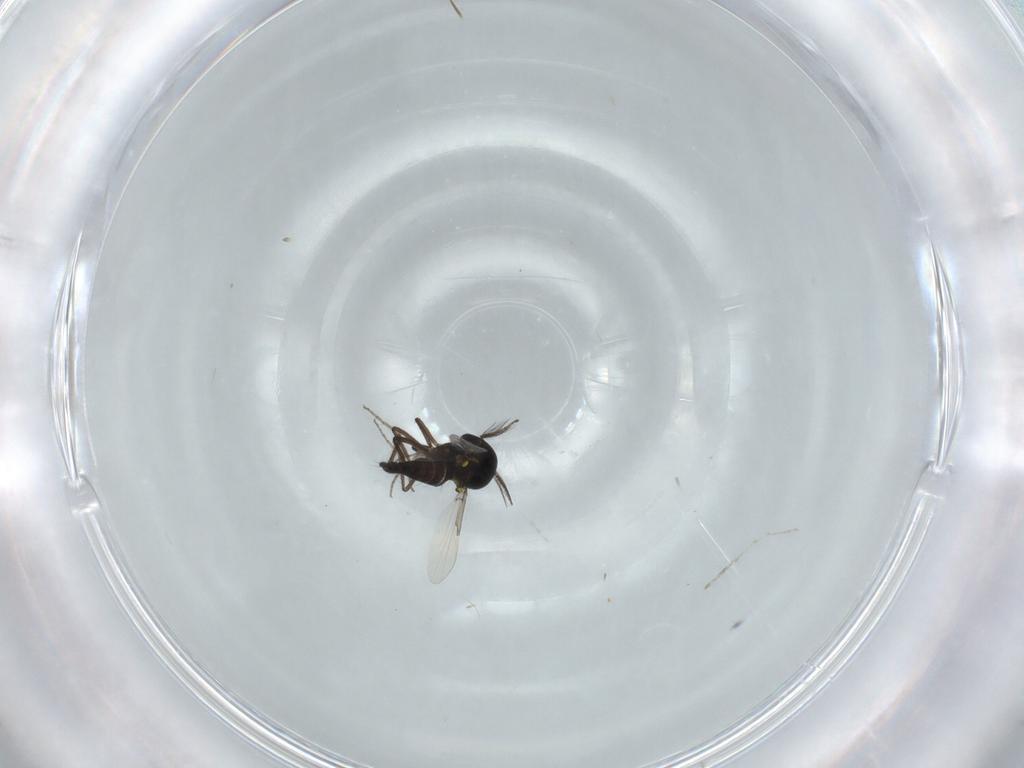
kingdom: Animalia
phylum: Arthropoda
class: Insecta
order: Diptera
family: Ceratopogonidae
